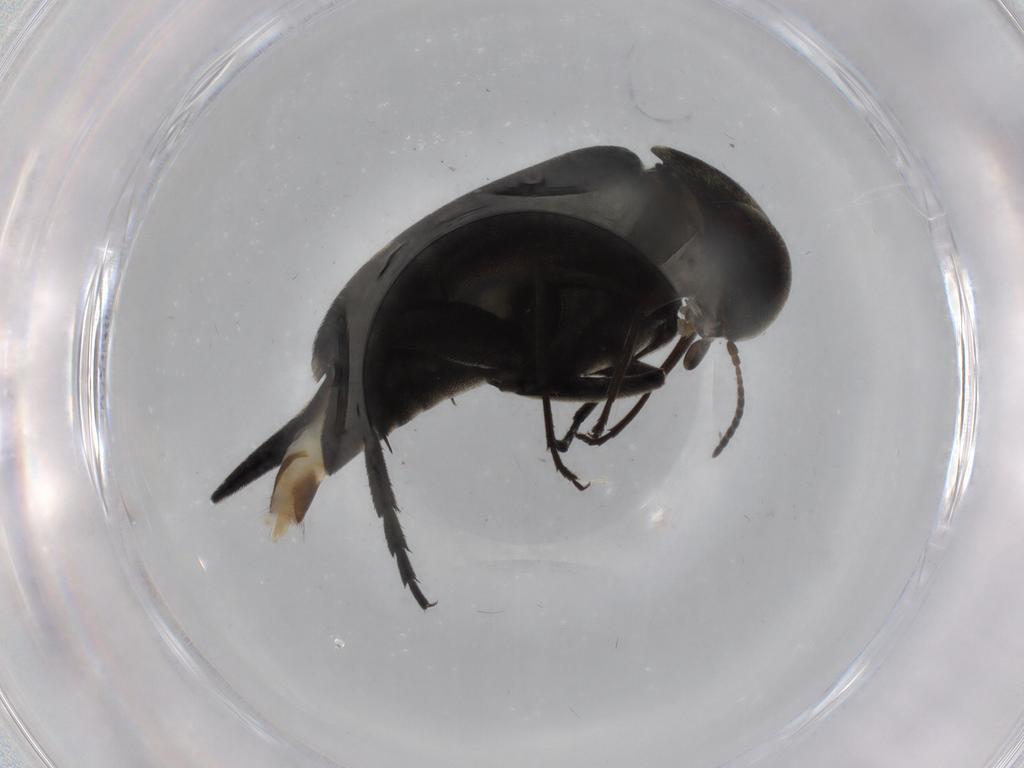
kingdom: Animalia
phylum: Arthropoda
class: Insecta
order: Coleoptera
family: Mordellidae
